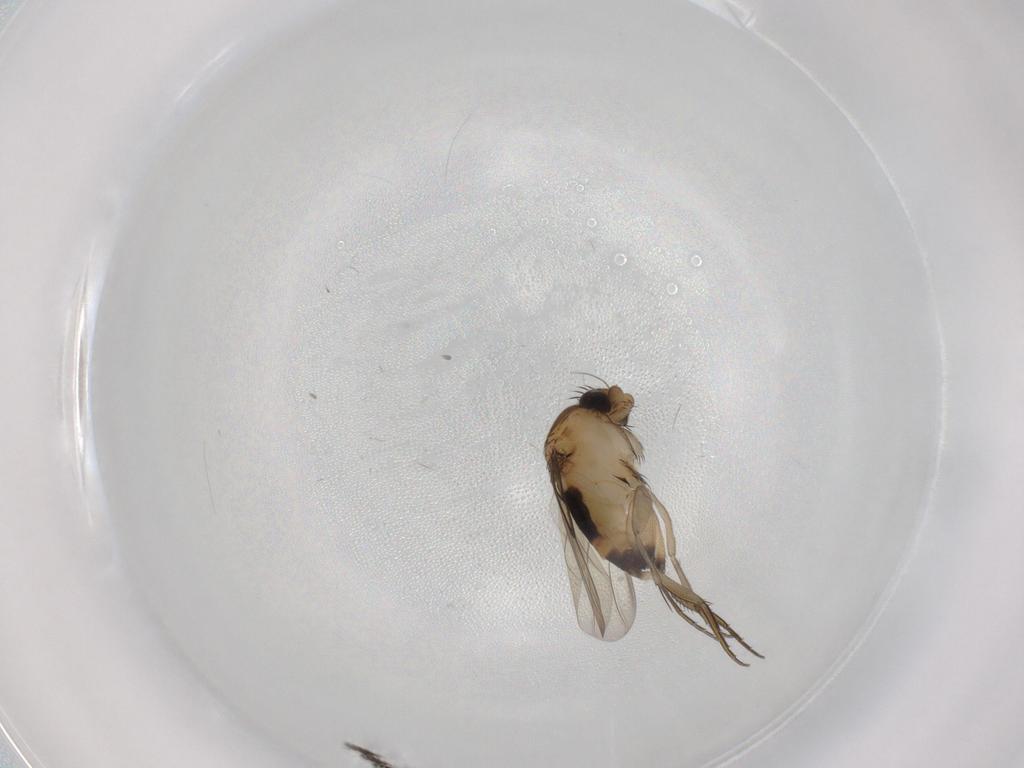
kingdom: Animalia
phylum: Arthropoda
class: Insecta
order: Diptera
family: Phoridae
